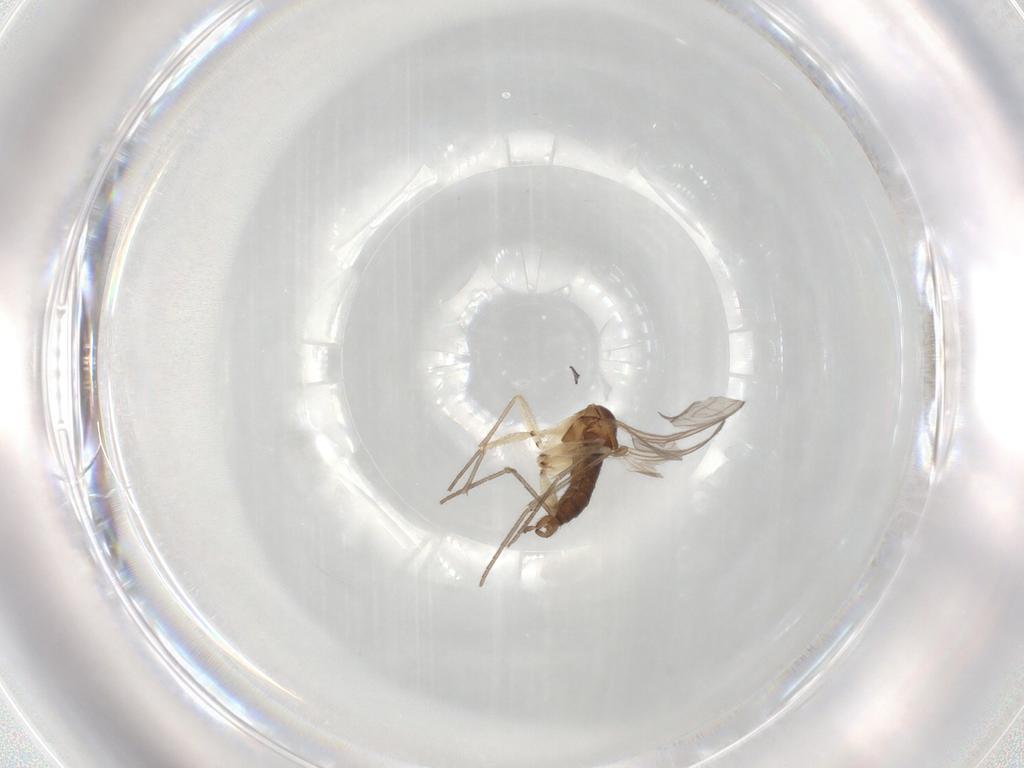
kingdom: Animalia
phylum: Arthropoda
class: Insecta
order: Diptera
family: Sciaridae
